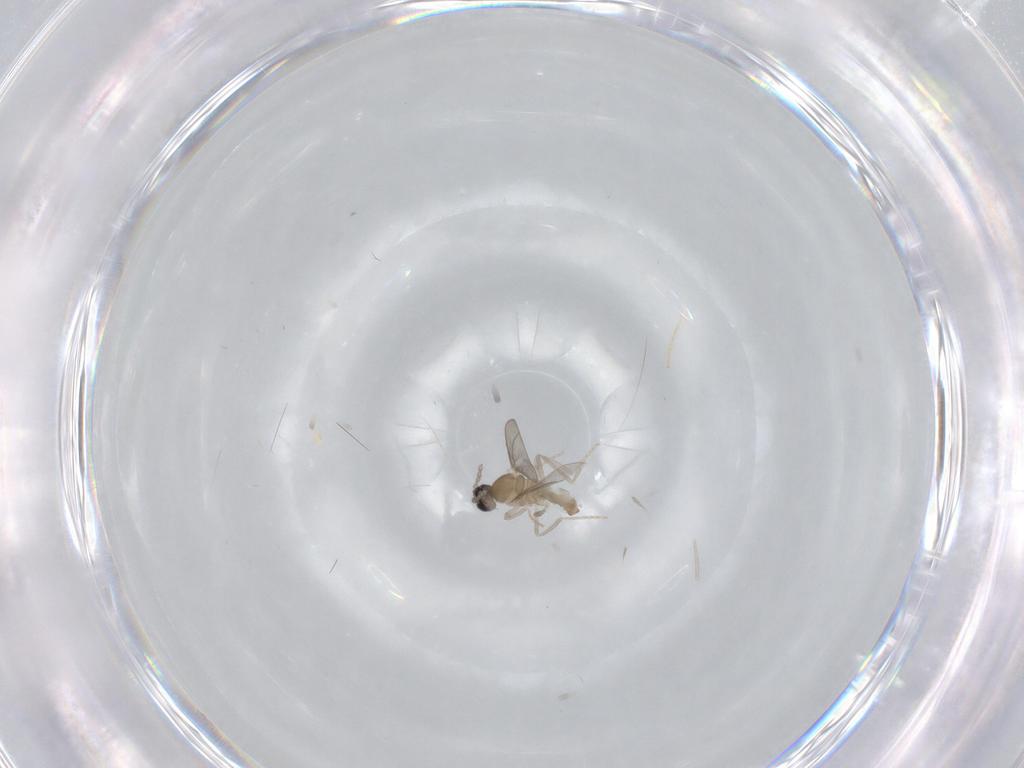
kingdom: Animalia
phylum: Arthropoda
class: Insecta
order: Diptera
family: Cecidomyiidae
